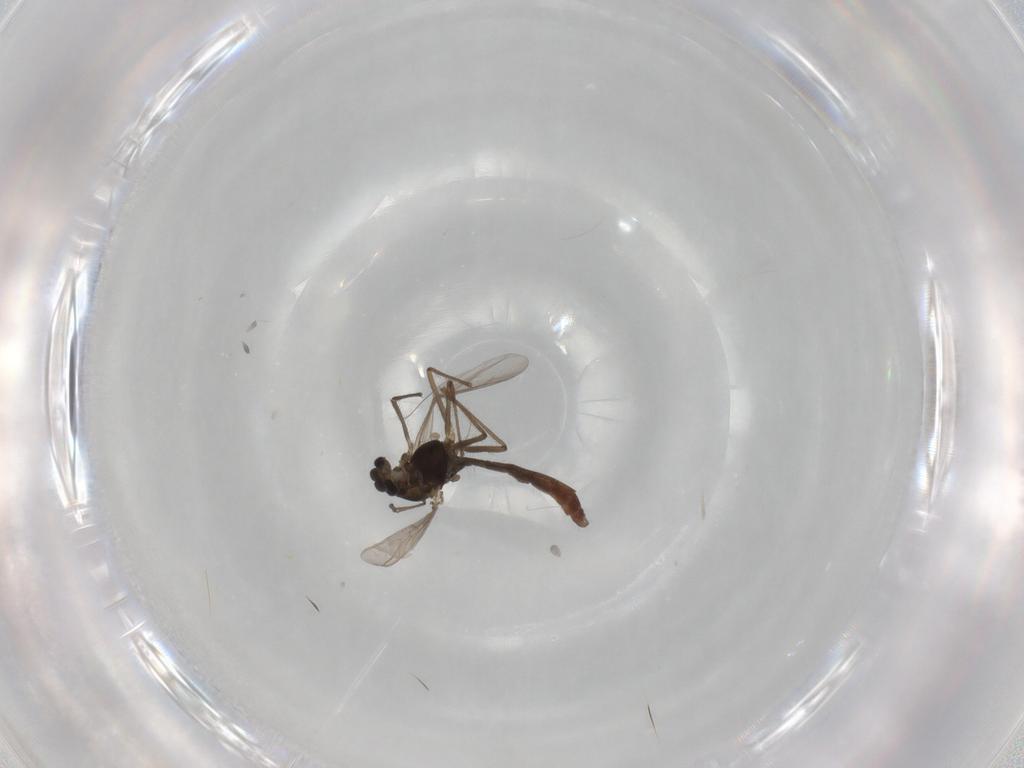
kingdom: Animalia
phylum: Arthropoda
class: Insecta
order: Diptera
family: Chironomidae
